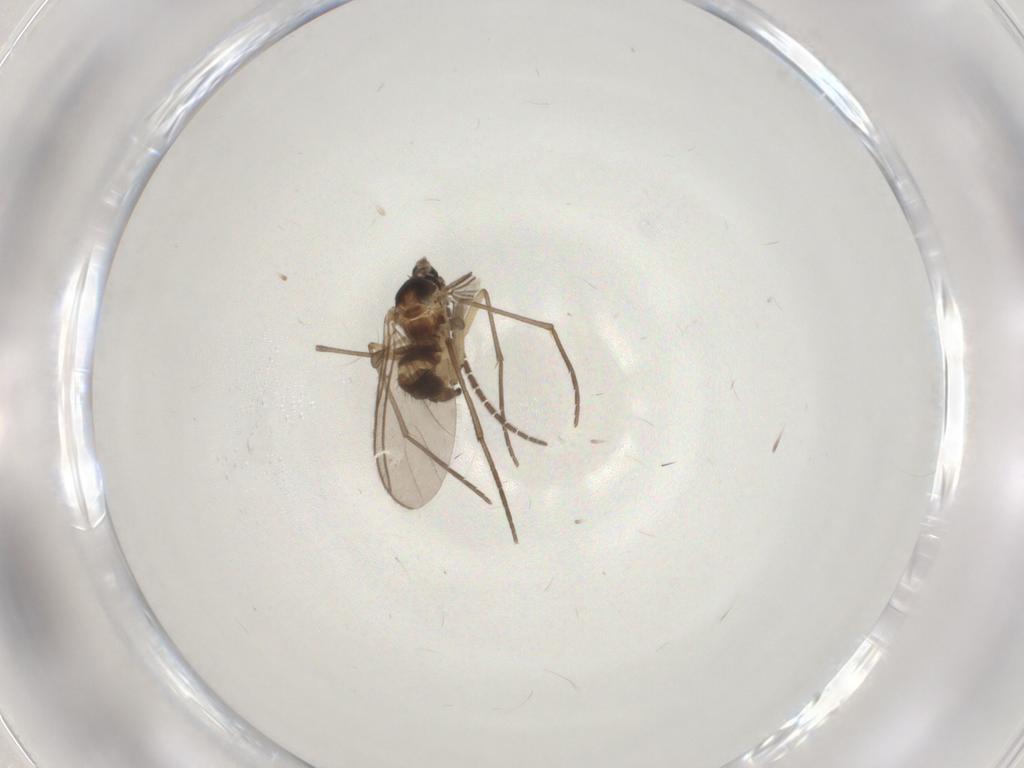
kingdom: Animalia
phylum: Arthropoda
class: Insecta
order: Diptera
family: Sciaridae
